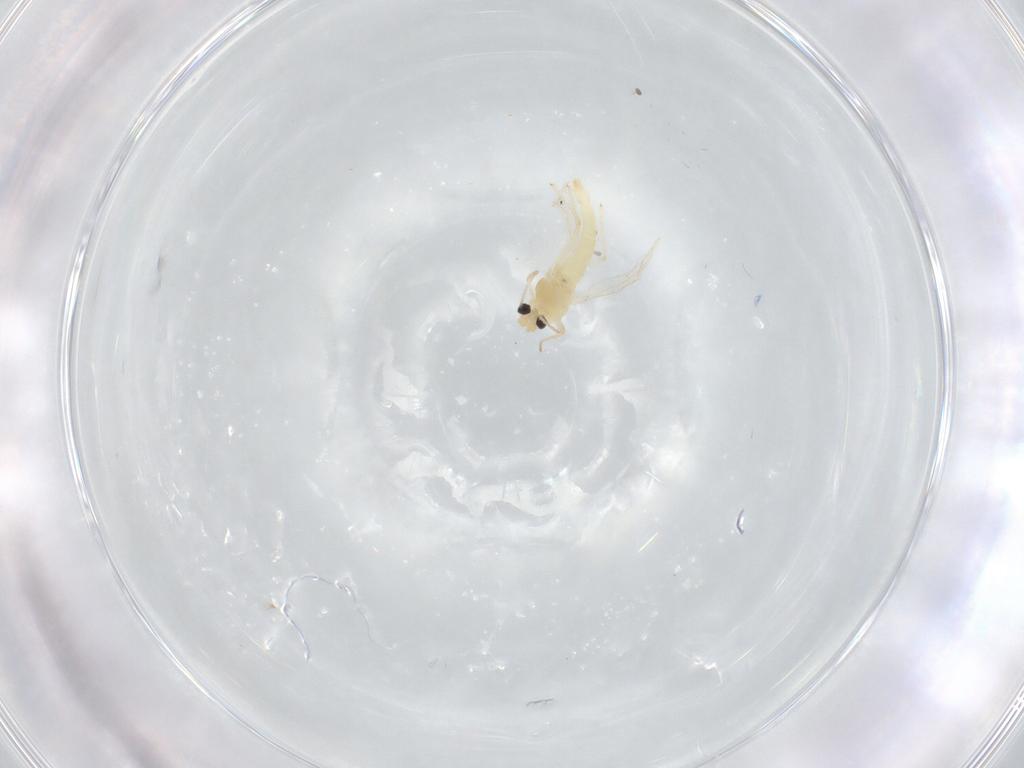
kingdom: Animalia
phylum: Arthropoda
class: Insecta
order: Diptera
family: Chironomidae
